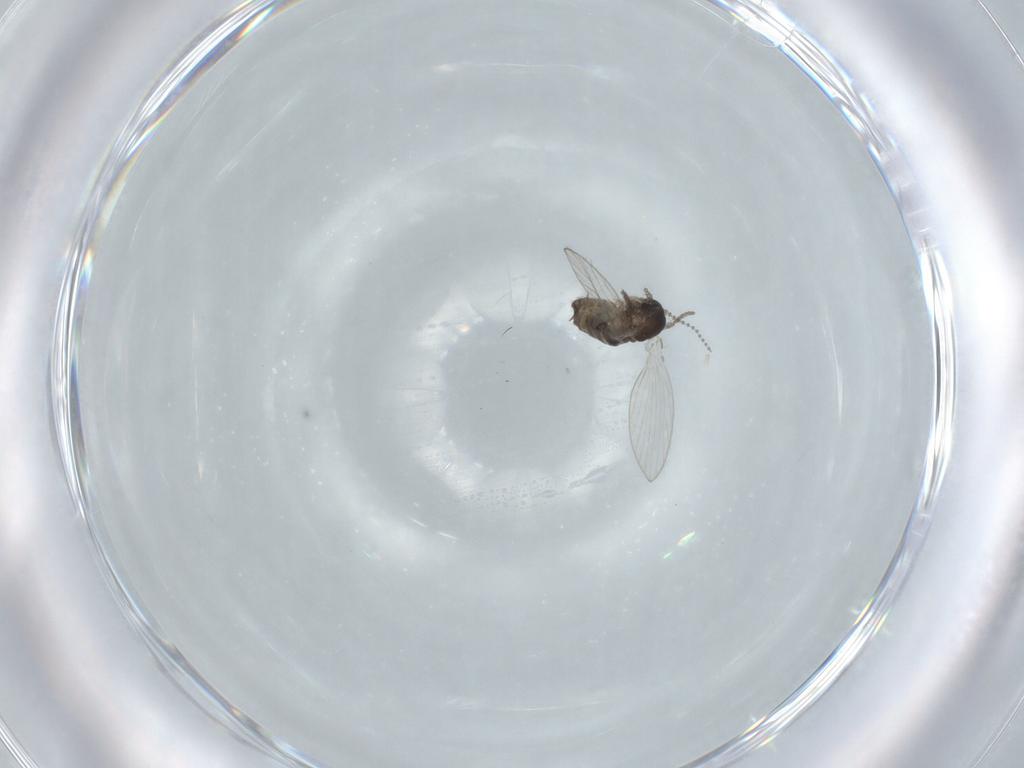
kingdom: Animalia
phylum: Arthropoda
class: Insecta
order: Diptera
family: Psychodidae
